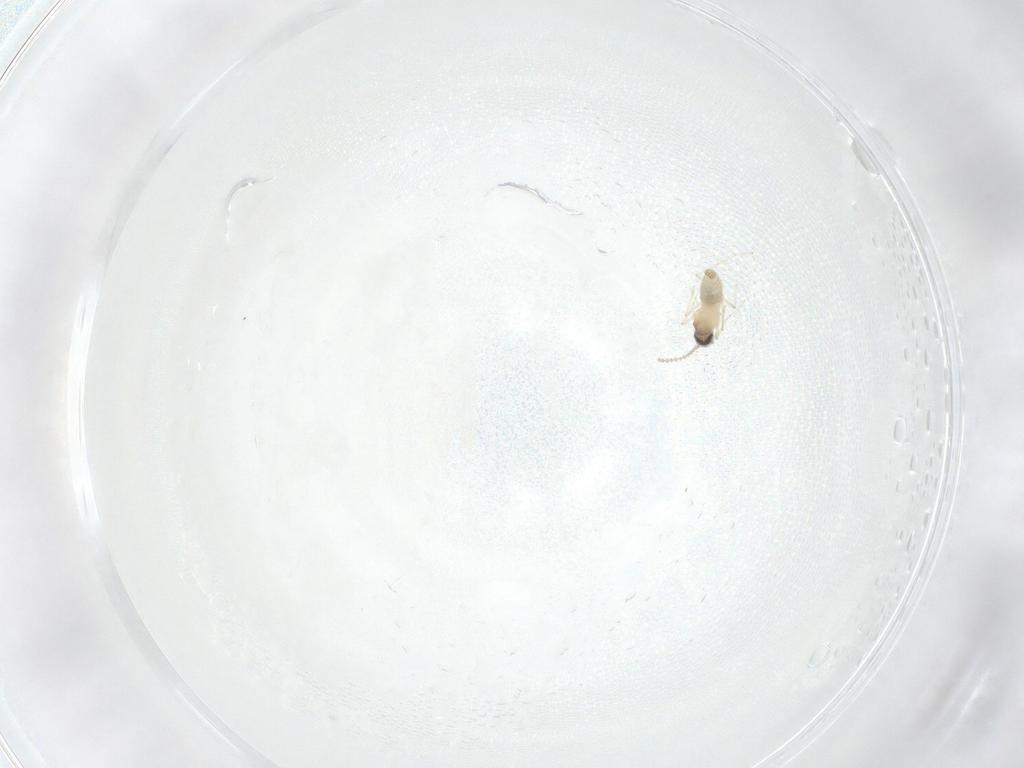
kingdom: Animalia
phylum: Arthropoda
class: Insecta
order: Diptera
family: Cecidomyiidae
